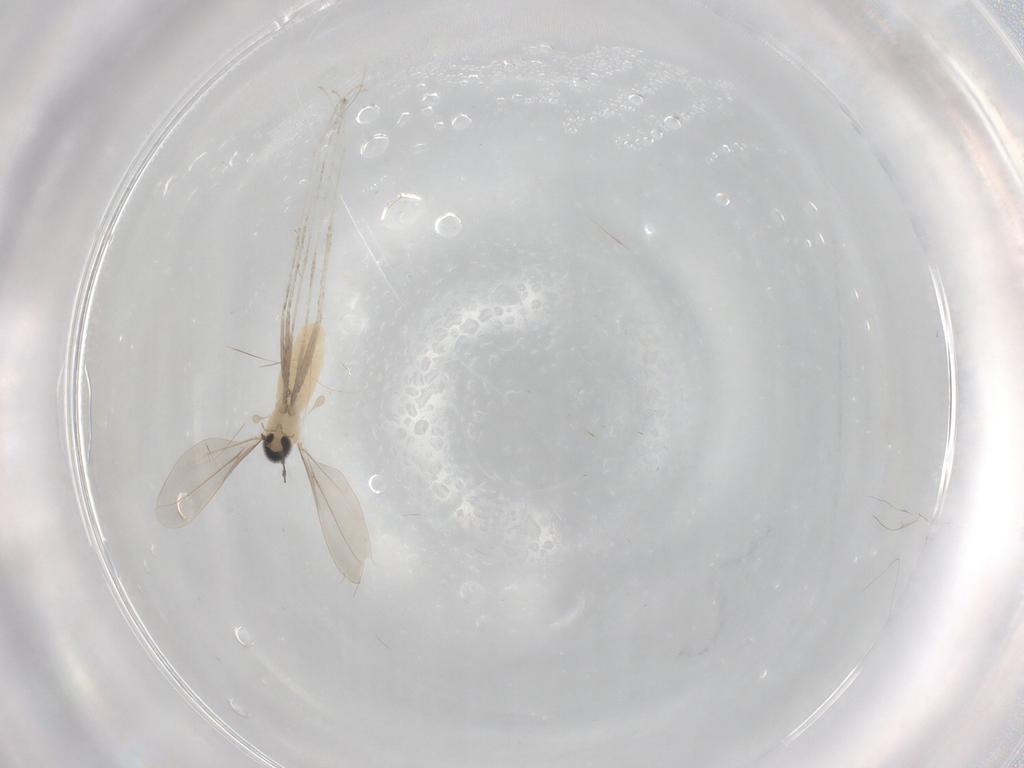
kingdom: Animalia
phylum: Arthropoda
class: Insecta
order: Diptera
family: Cecidomyiidae
